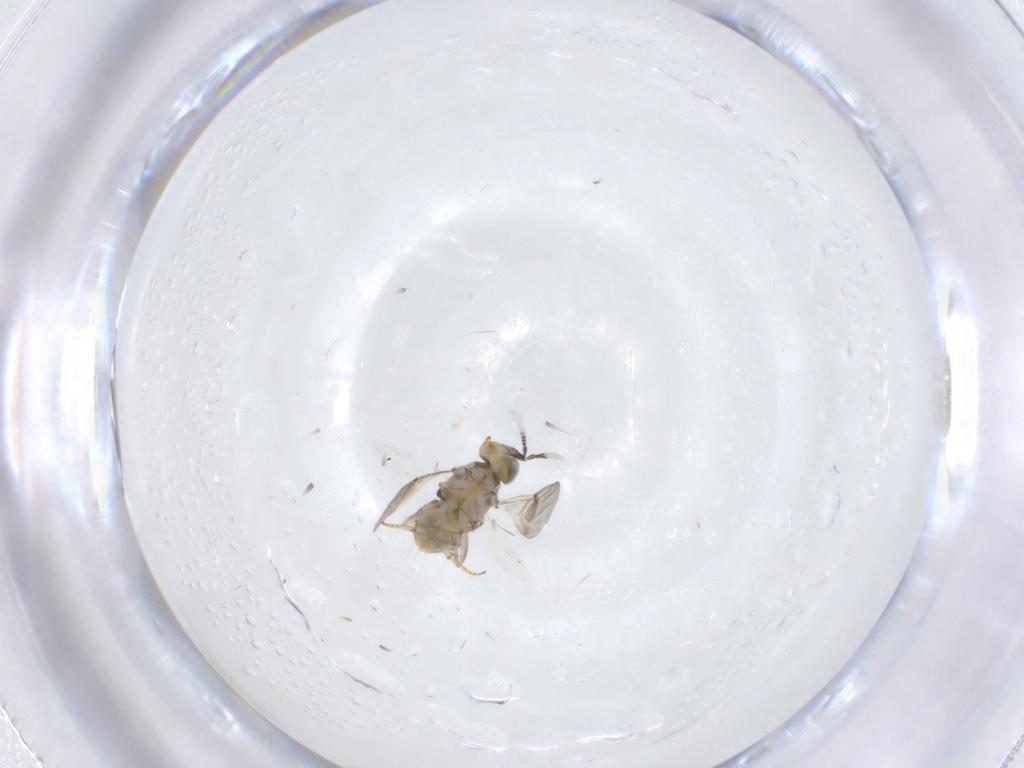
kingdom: Animalia
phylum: Arthropoda
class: Insecta
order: Hymenoptera
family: Encyrtidae
